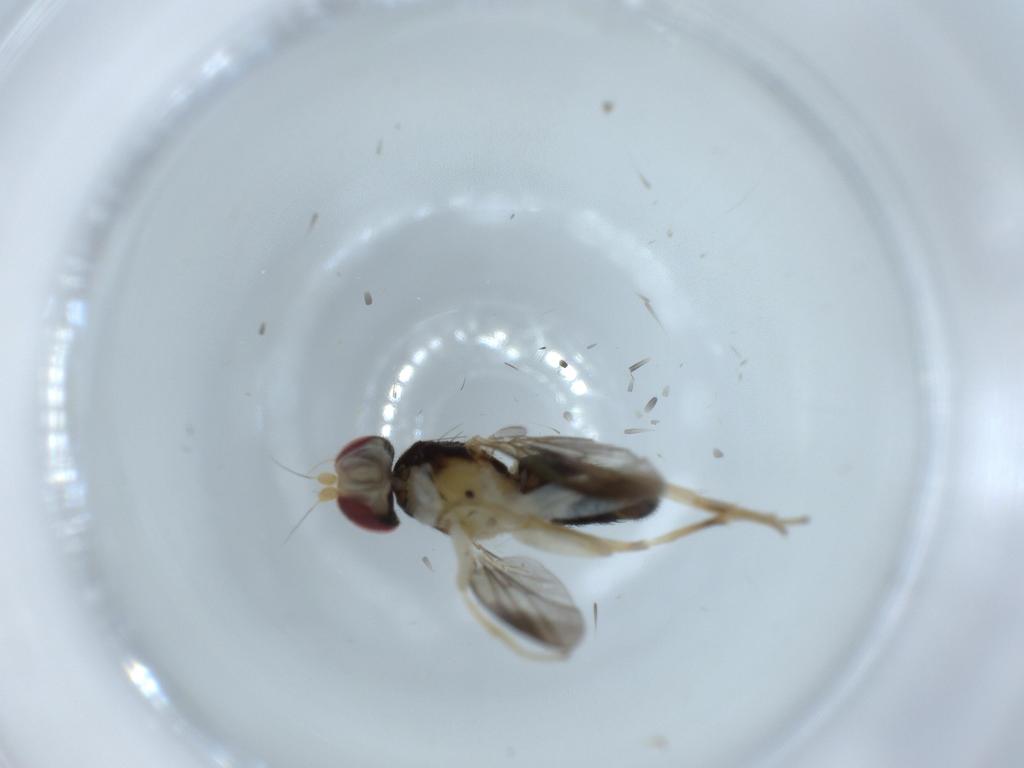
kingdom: Animalia
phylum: Arthropoda
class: Insecta
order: Diptera
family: Clusiidae
